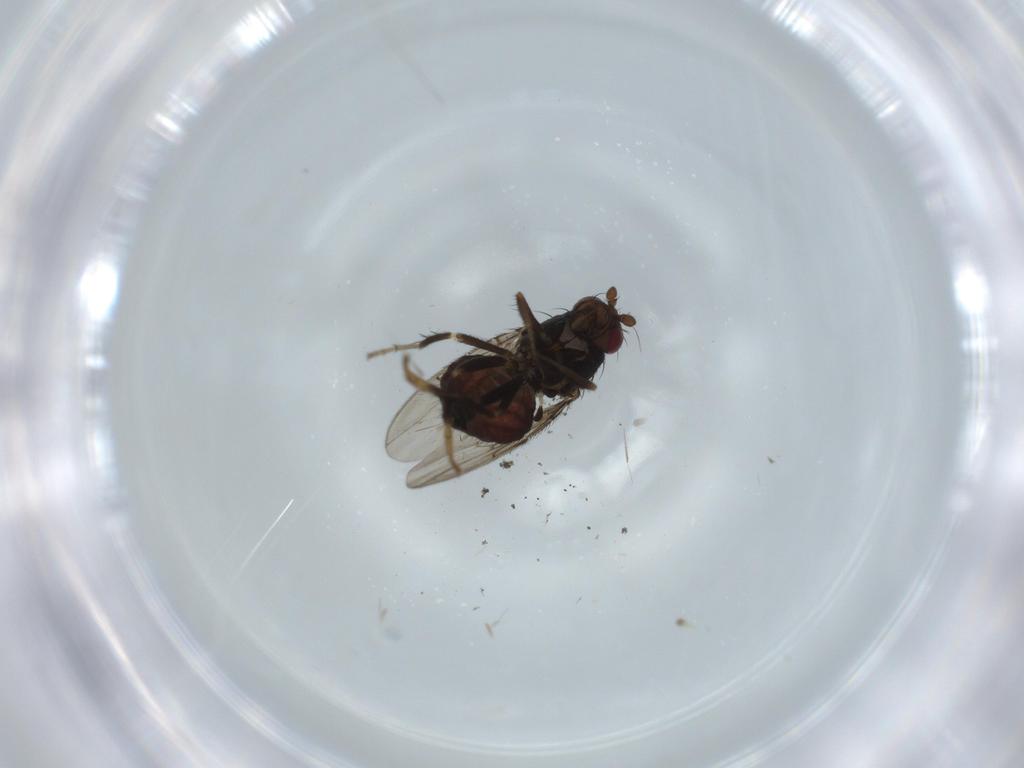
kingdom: Animalia
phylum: Arthropoda
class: Insecta
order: Diptera
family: Sphaeroceridae
